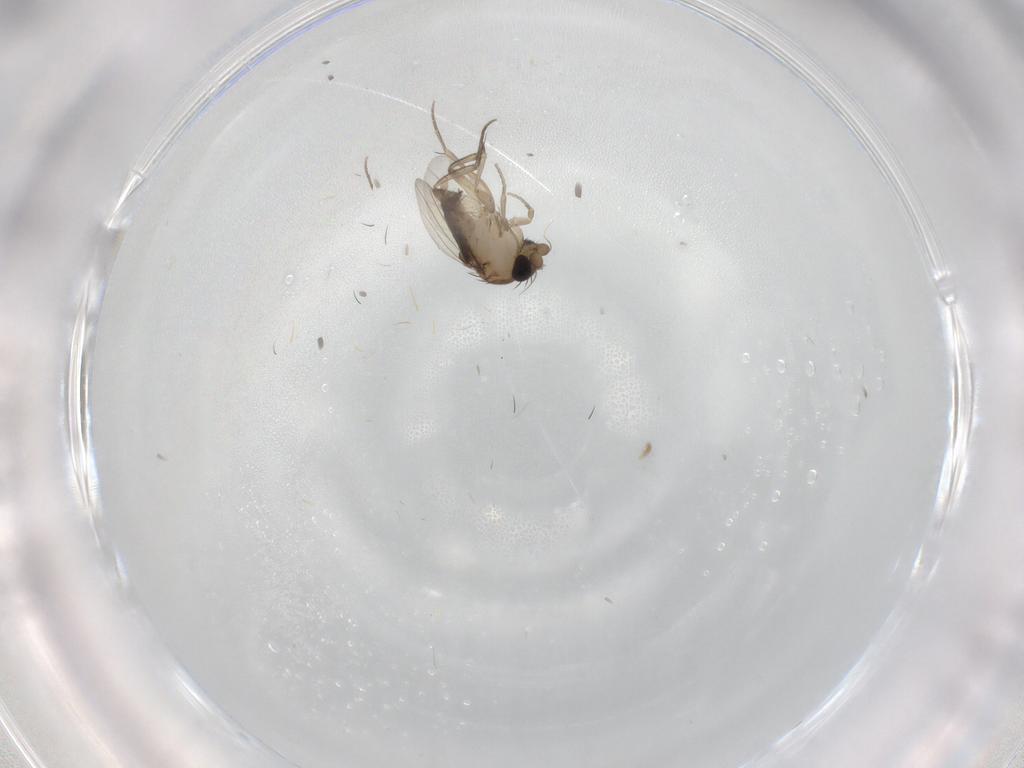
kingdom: Animalia
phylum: Arthropoda
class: Insecta
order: Diptera
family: Phoridae
